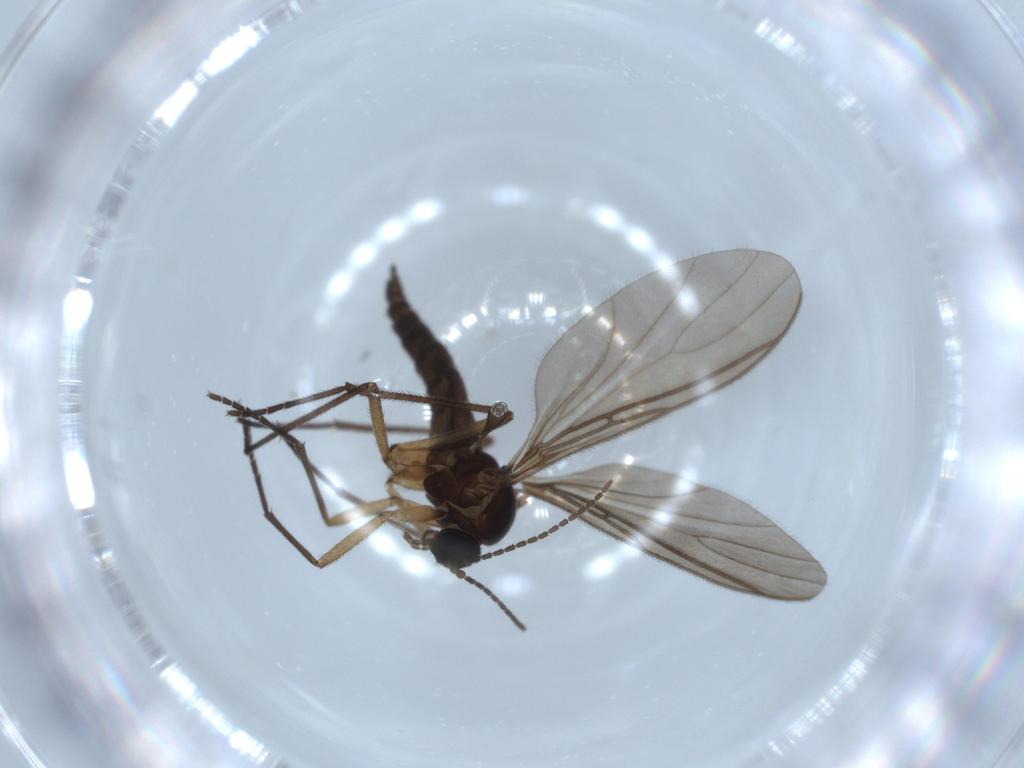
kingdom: Animalia
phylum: Arthropoda
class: Insecta
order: Diptera
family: Sciaridae
